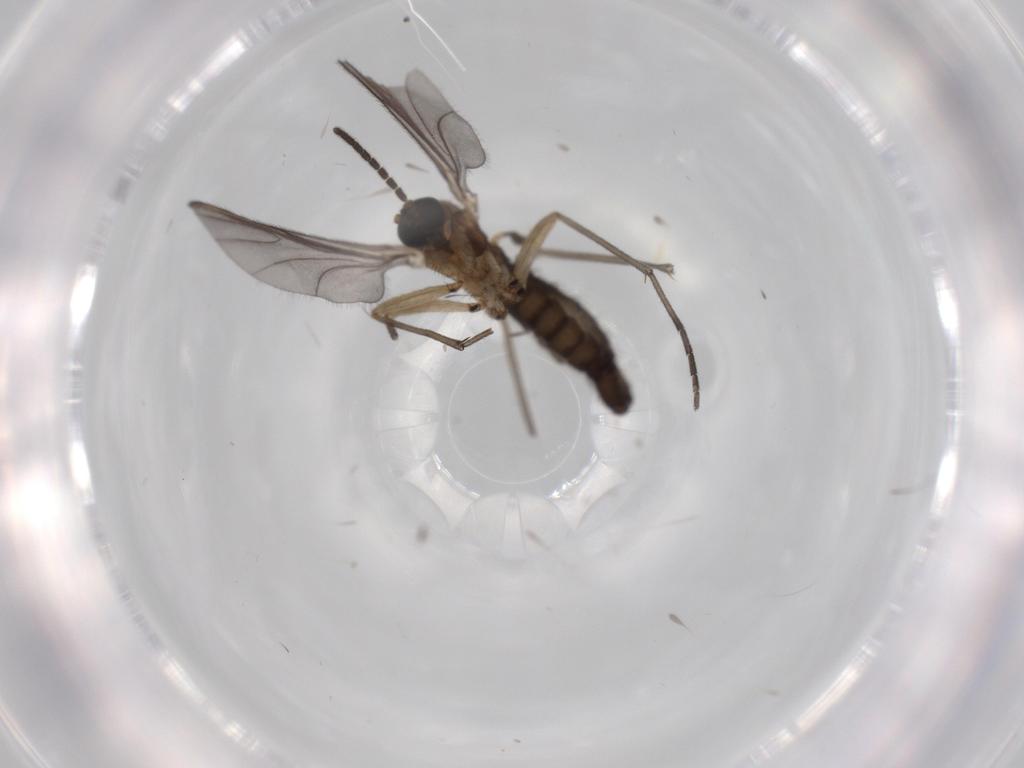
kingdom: Animalia
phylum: Arthropoda
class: Insecta
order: Diptera
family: Sciaridae
